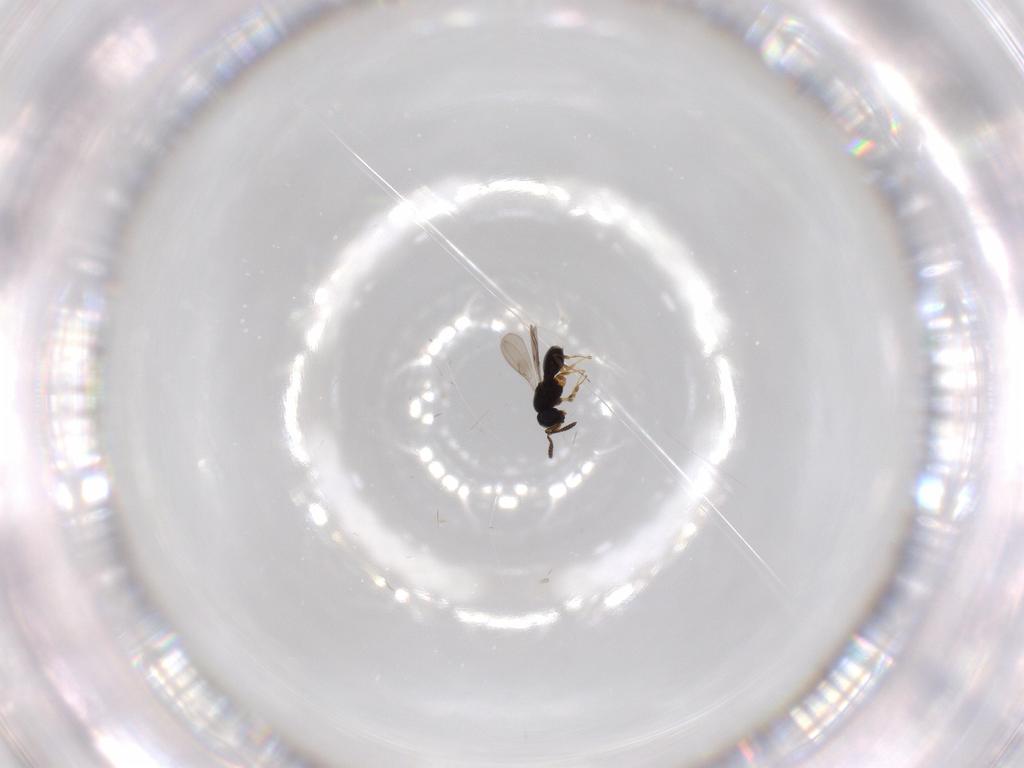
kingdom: Animalia
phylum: Arthropoda
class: Insecta
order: Hymenoptera
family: Scelionidae
